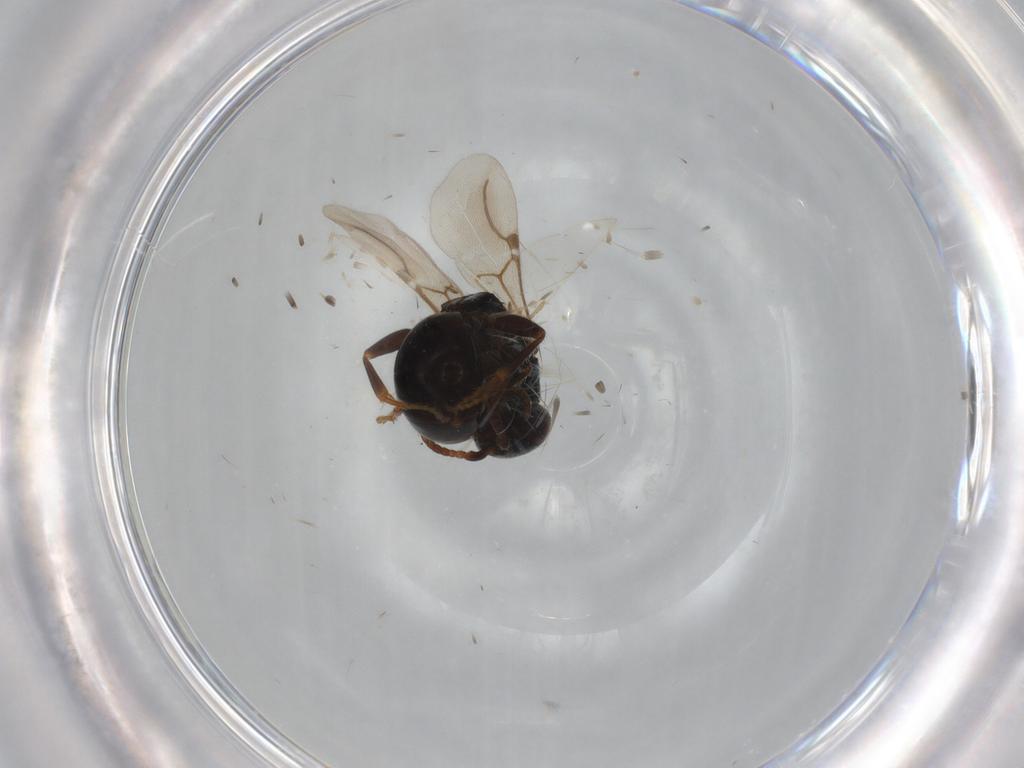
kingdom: Animalia
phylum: Arthropoda
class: Insecta
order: Hymenoptera
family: Bethylidae
